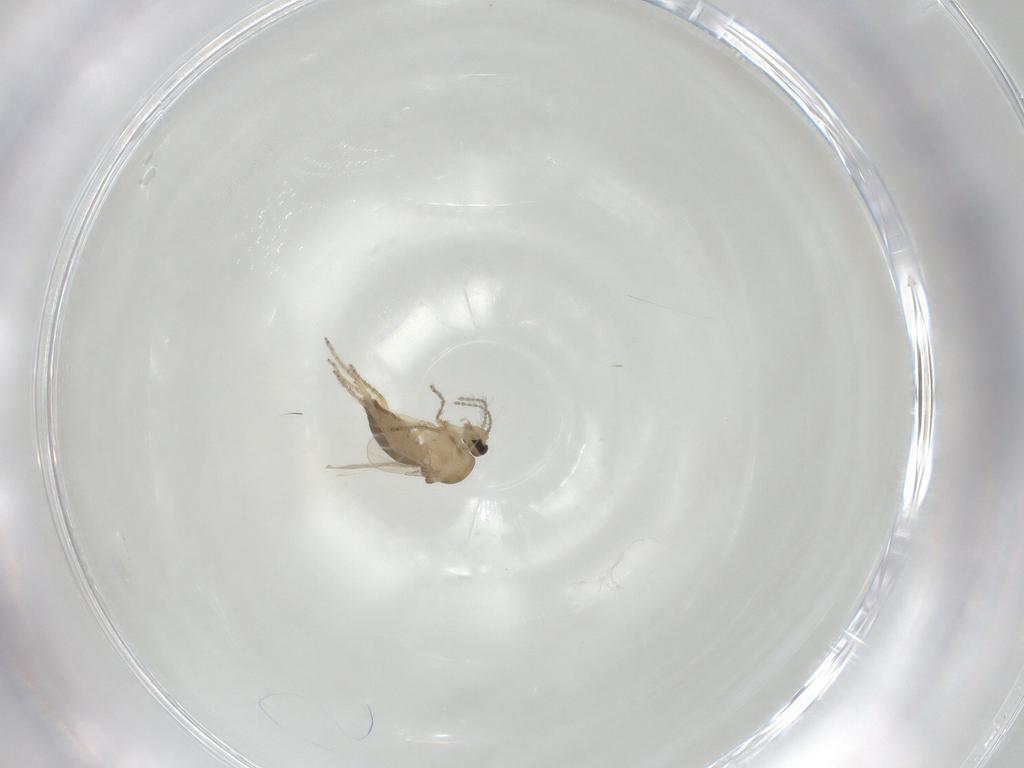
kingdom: Animalia
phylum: Arthropoda
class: Insecta
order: Diptera
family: Ceratopogonidae
